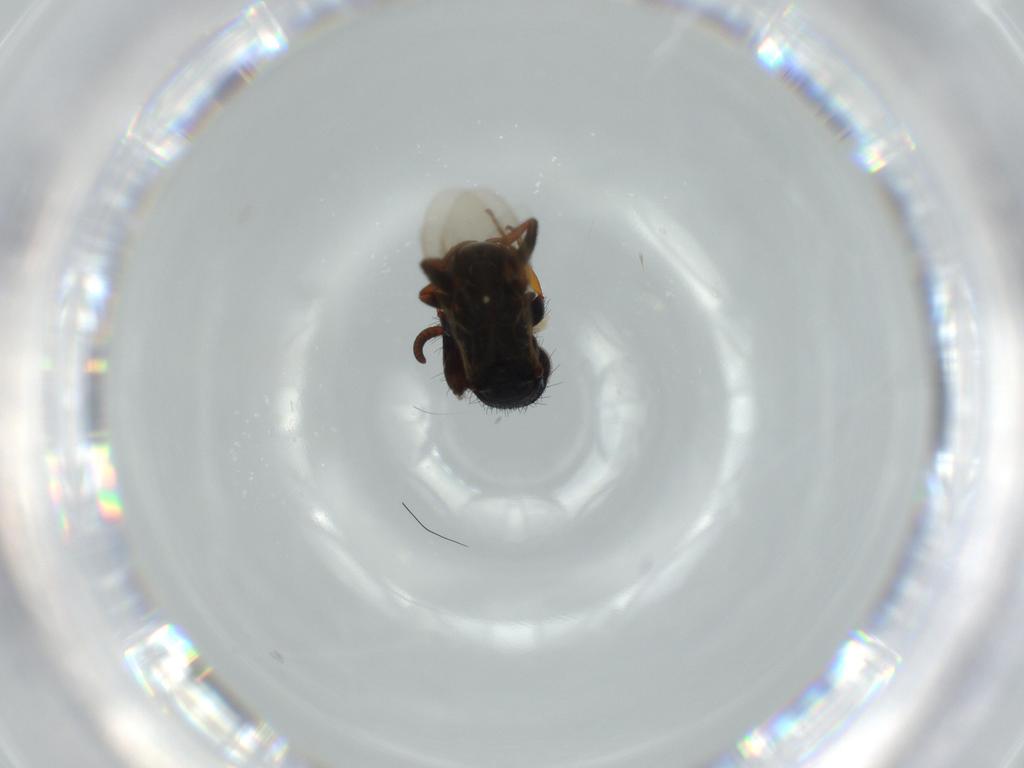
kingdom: Animalia
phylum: Arthropoda
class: Insecta
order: Hymenoptera
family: Bethylidae
